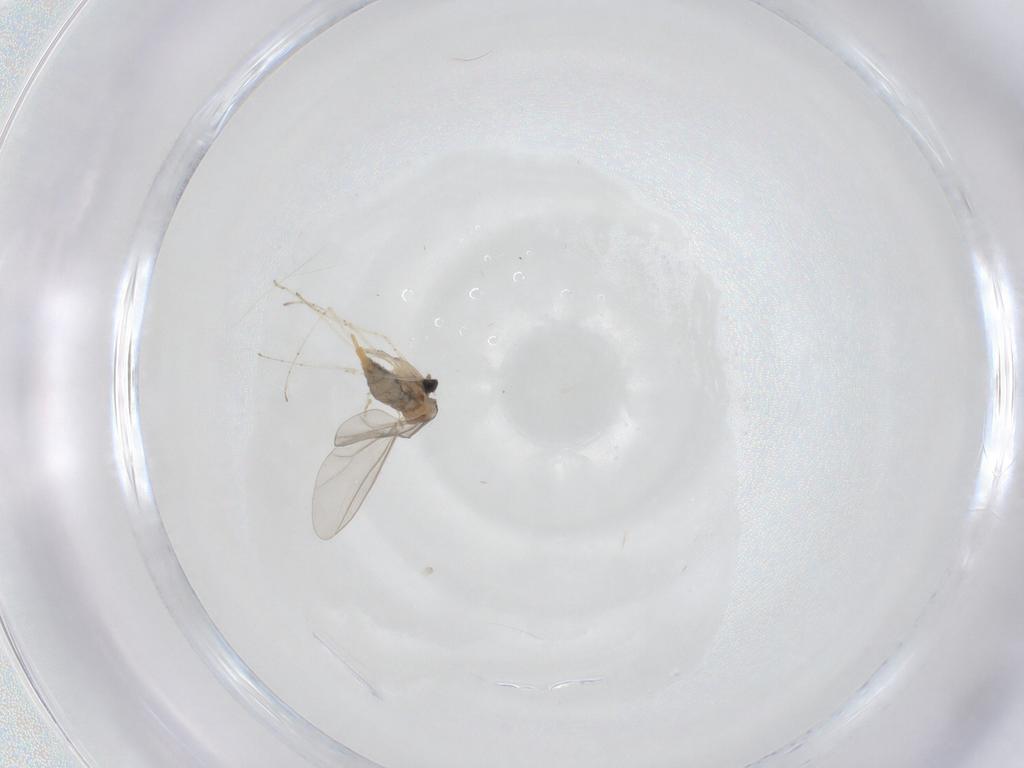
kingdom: Animalia
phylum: Arthropoda
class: Insecta
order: Diptera
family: Cecidomyiidae
